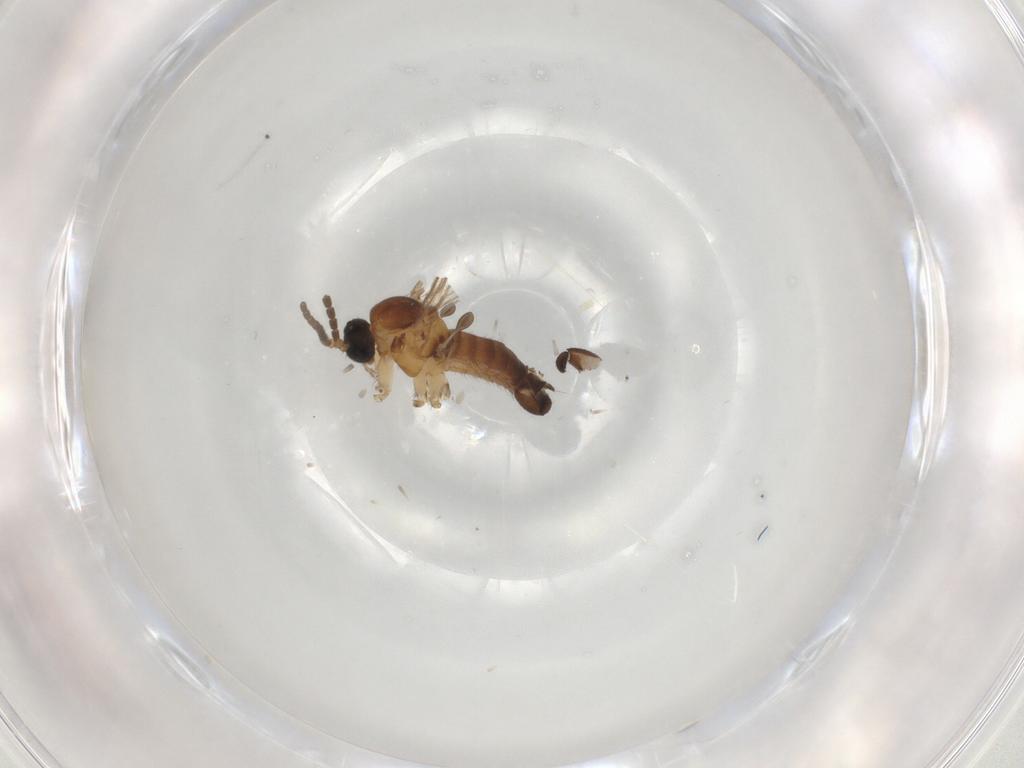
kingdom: Animalia
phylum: Arthropoda
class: Insecta
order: Diptera
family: Sciaridae
